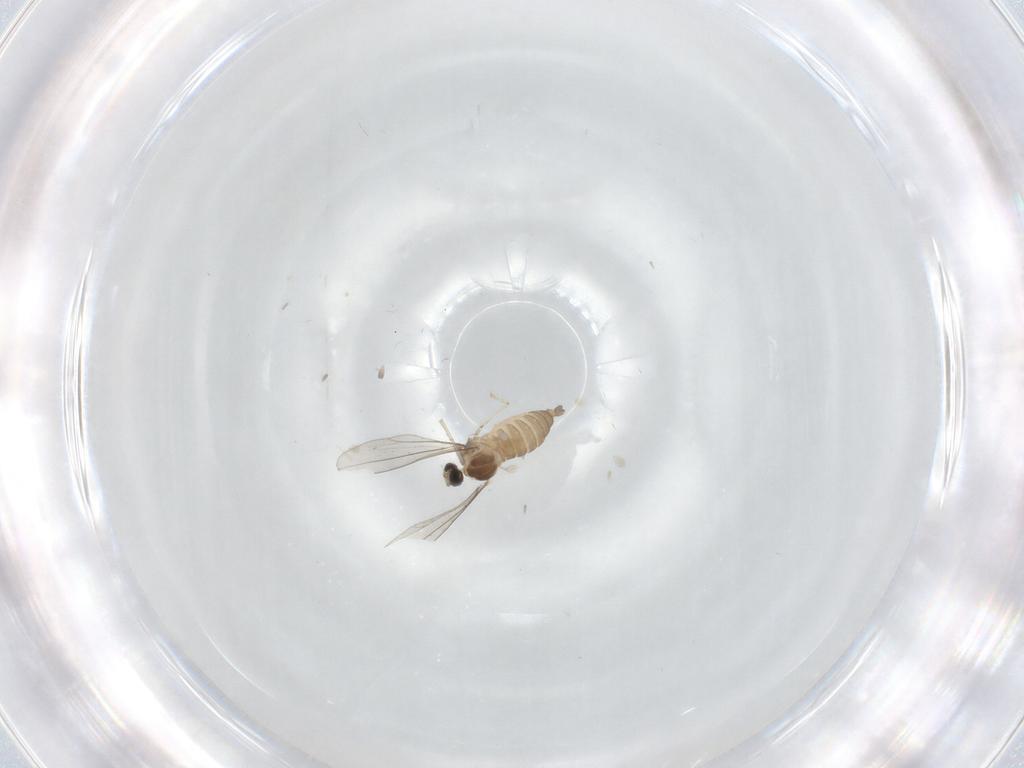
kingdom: Animalia
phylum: Arthropoda
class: Insecta
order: Diptera
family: Cecidomyiidae
